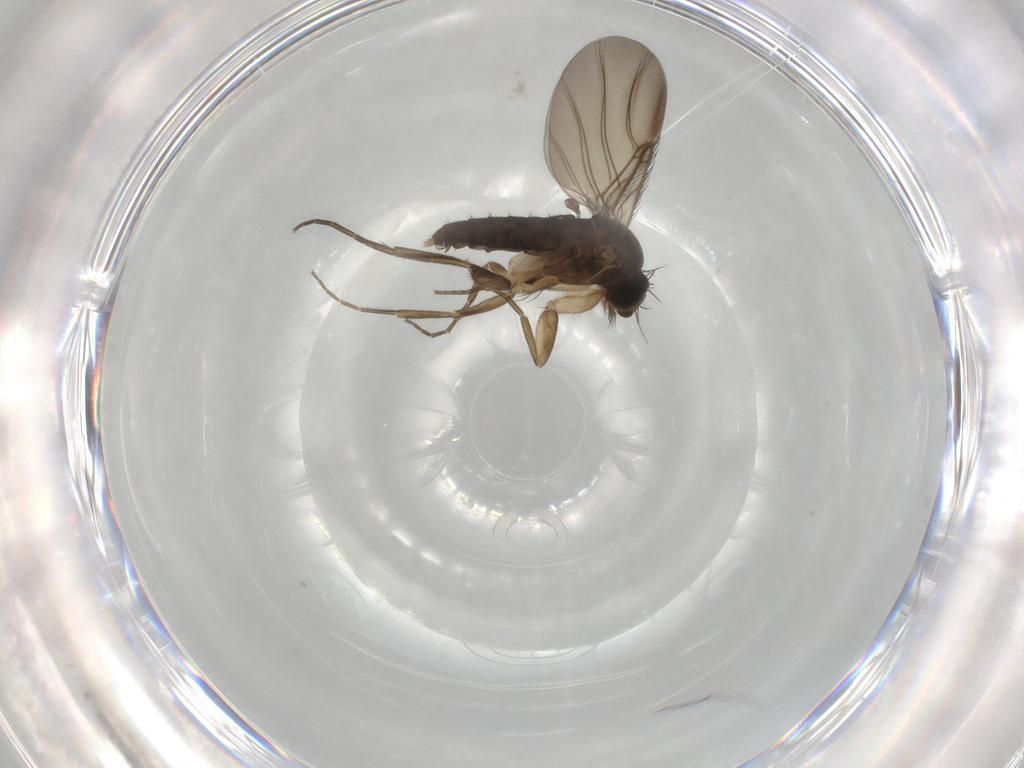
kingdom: Animalia
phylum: Arthropoda
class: Insecta
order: Diptera
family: Phoridae
